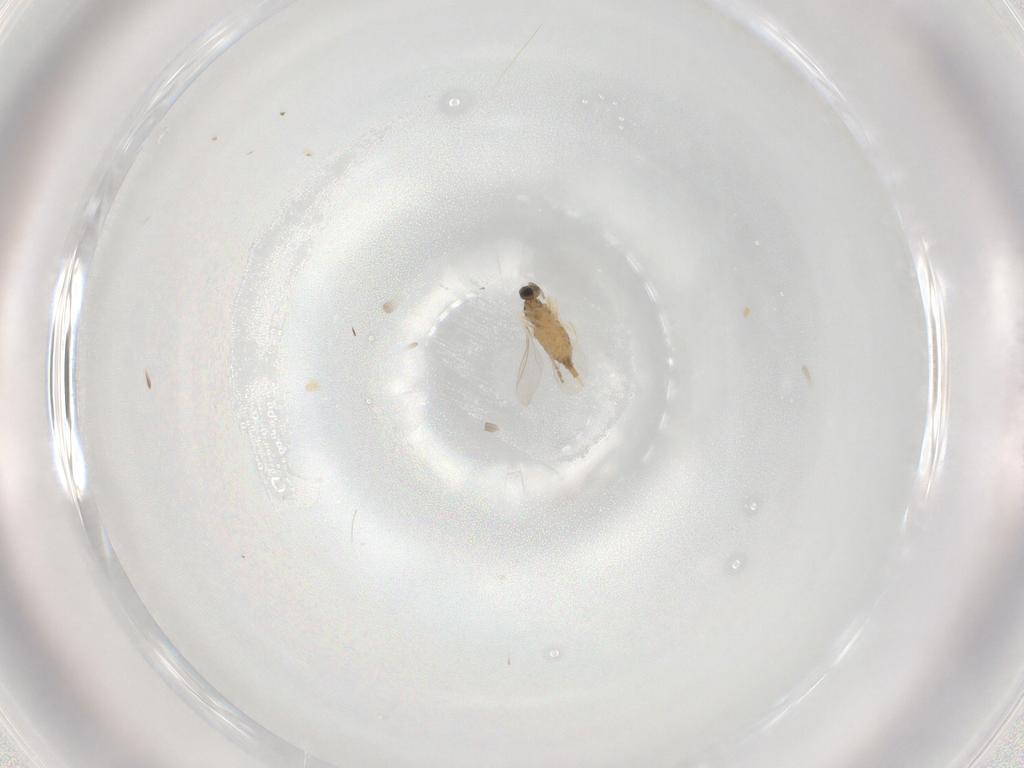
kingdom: Animalia
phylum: Arthropoda
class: Insecta
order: Diptera
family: Cecidomyiidae
